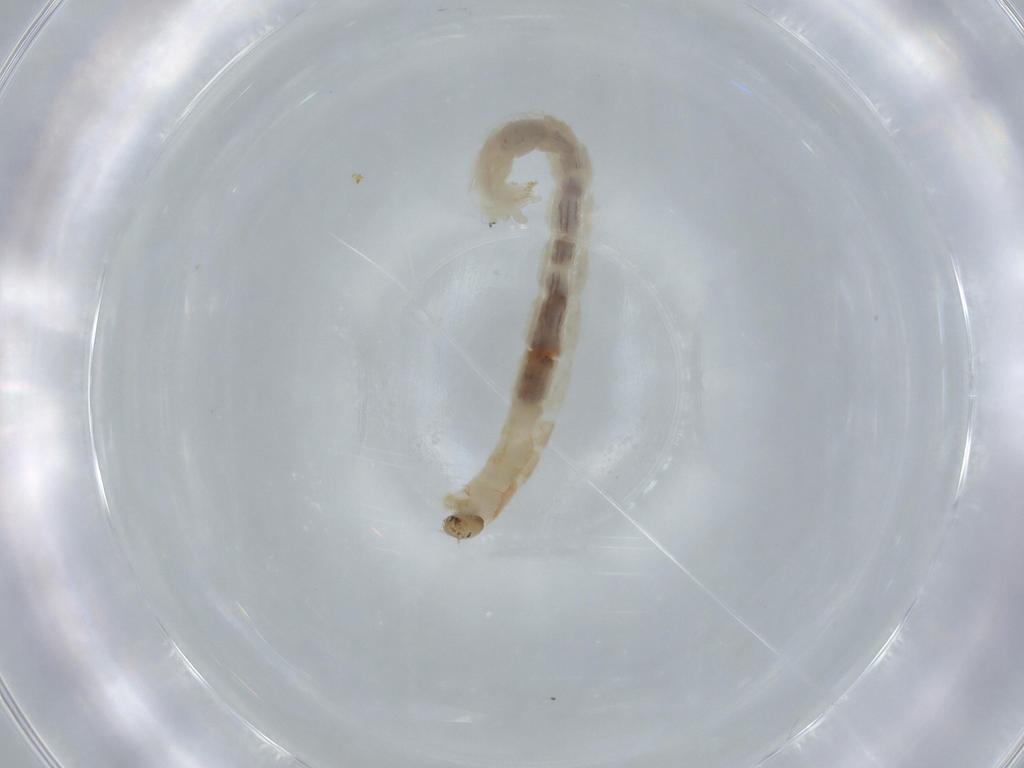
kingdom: Animalia
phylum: Arthropoda
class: Insecta
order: Diptera
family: Chironomidae
